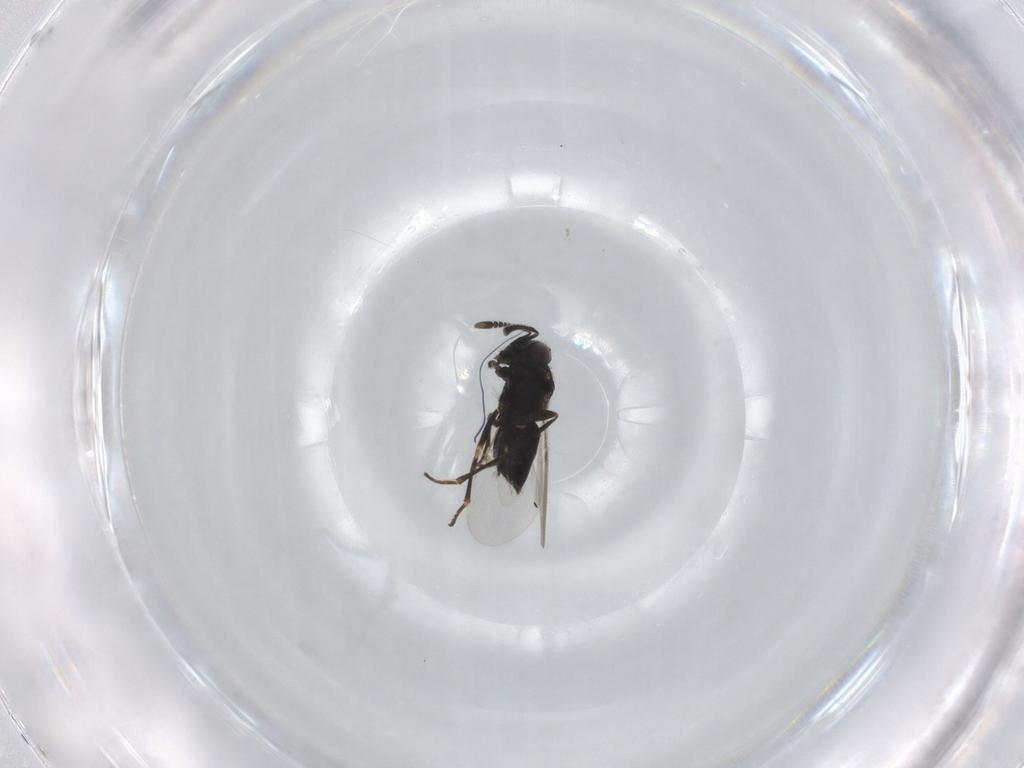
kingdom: Animalia
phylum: Arthropoda
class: Insecta
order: Hymenoptera
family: Encyrtidae
